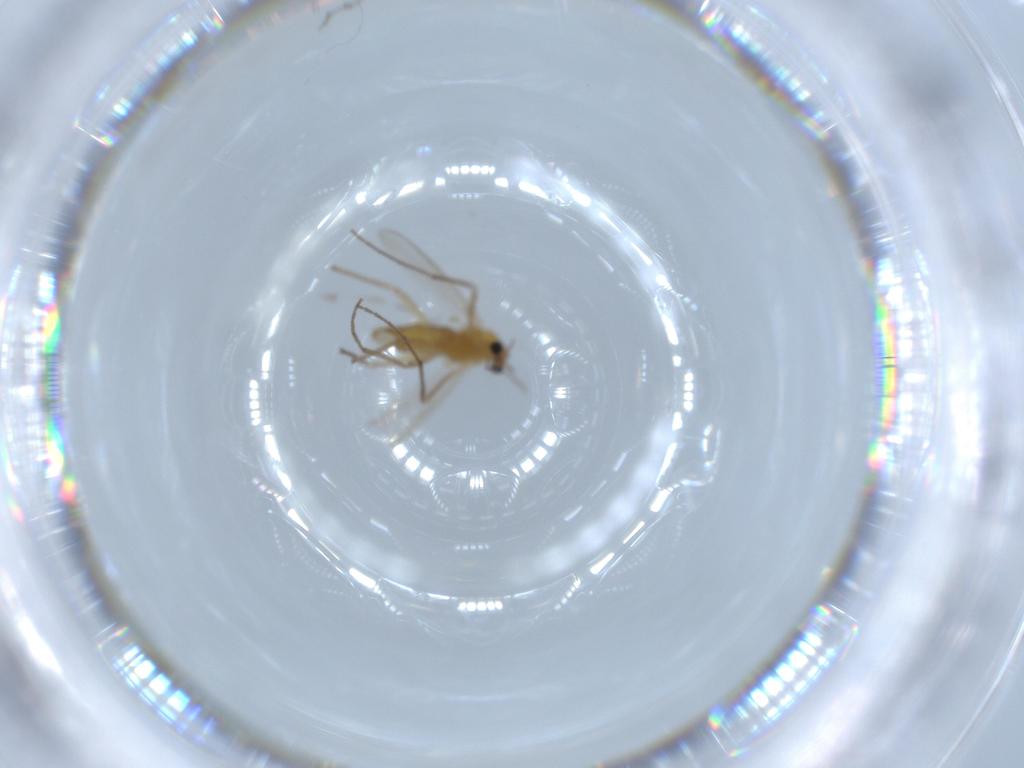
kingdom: Animalia
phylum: Arthropoda
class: Insecta
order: Diptera
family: Chironomidae
